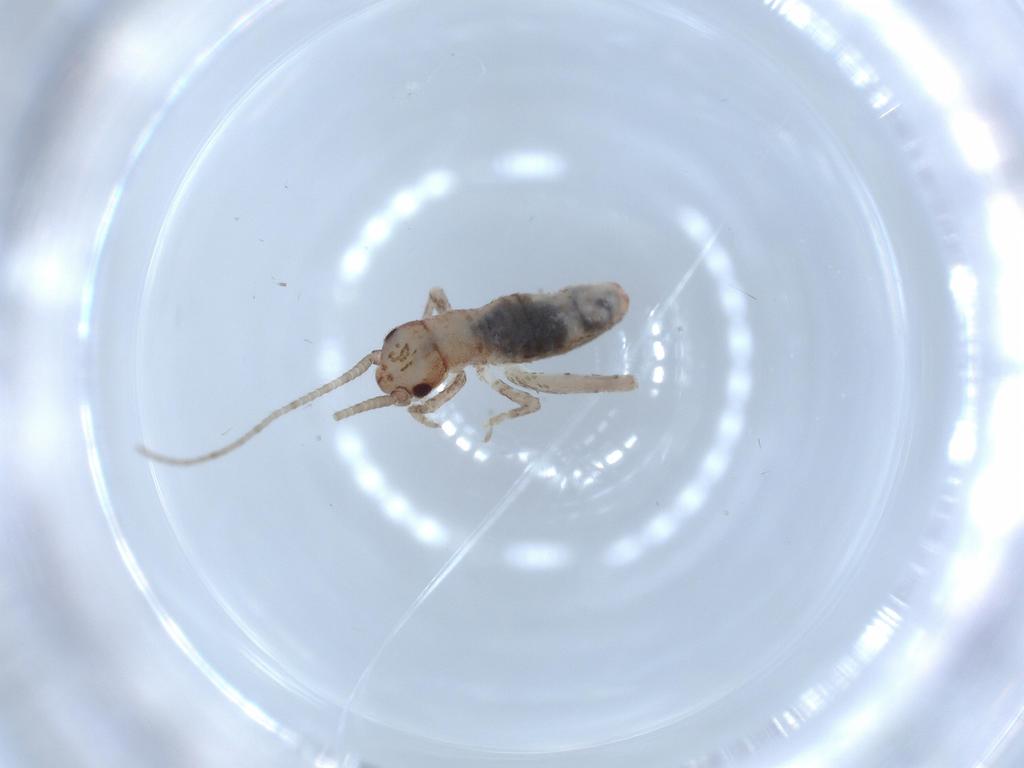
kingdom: Animalia
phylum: Arthropoda
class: Insecta
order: Orthoptera
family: Mogoplistidae
